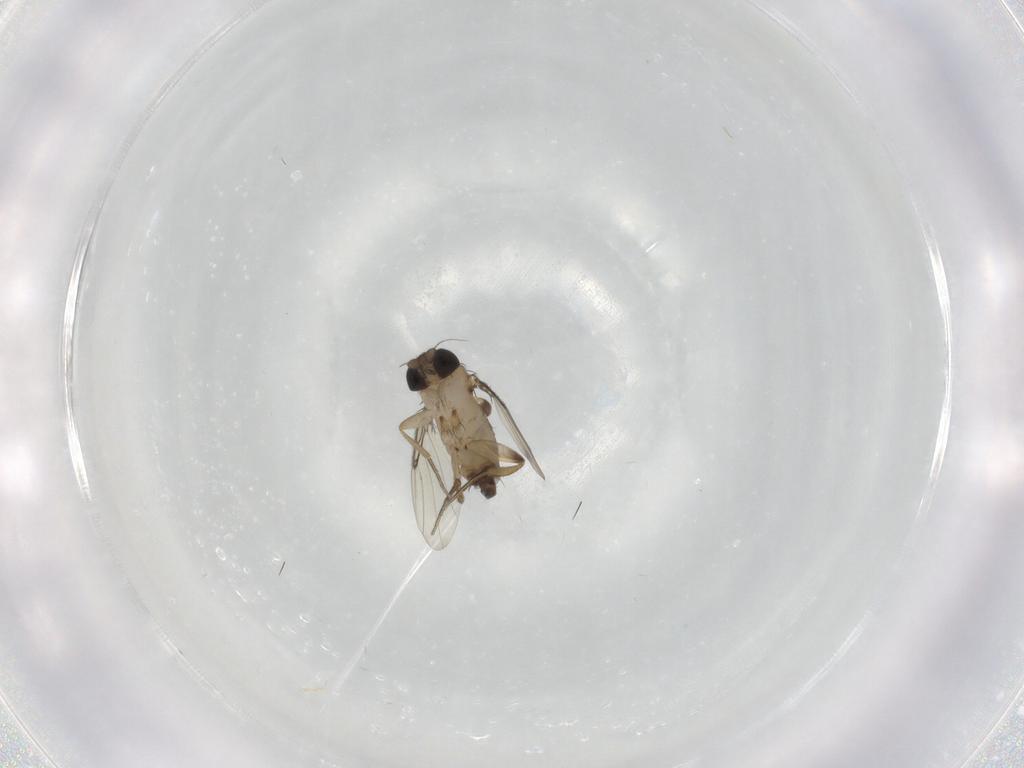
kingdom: Animalia
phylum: Arthropoda
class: Insecta
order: Diptera
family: Phoridae
